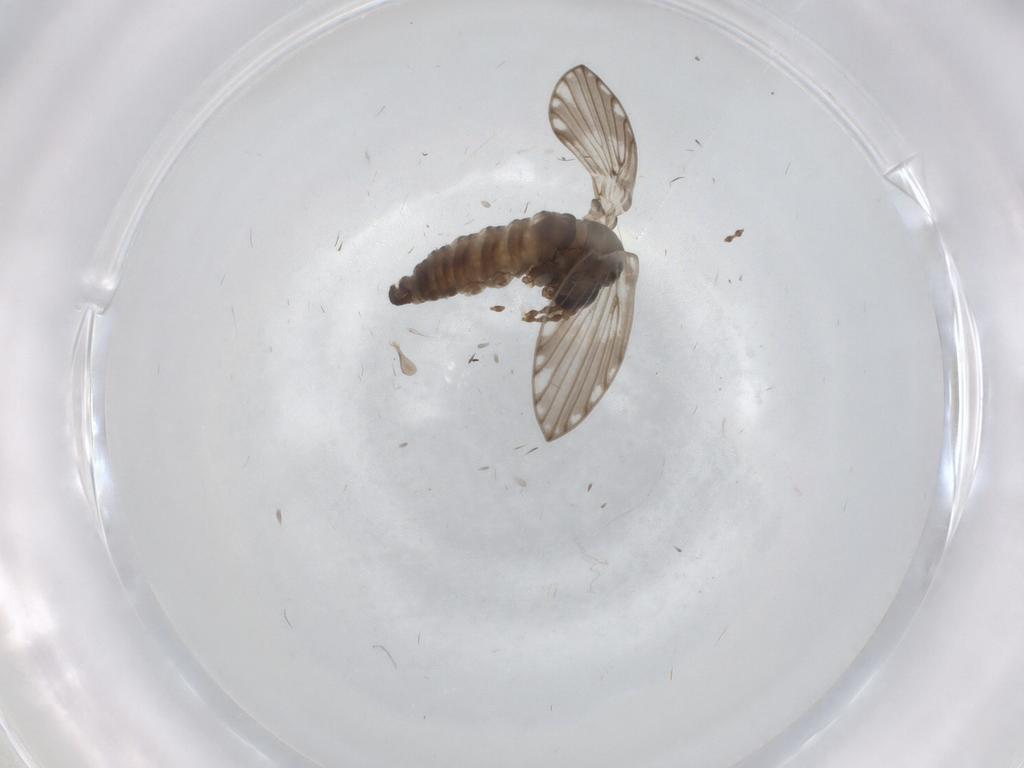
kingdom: Animalia
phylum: Arthropoda
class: Insecta
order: Diptera
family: Psychodidae
